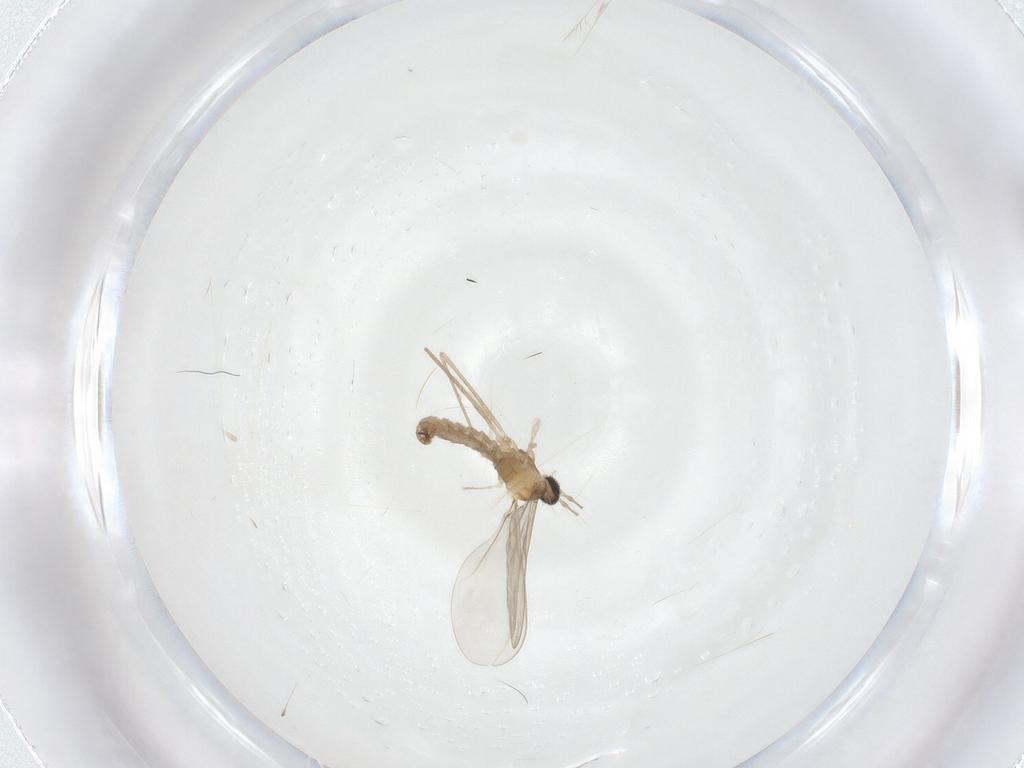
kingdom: Animalia
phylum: Arthropoda
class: Insecta
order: Diptera
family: Cecidomyiidae
